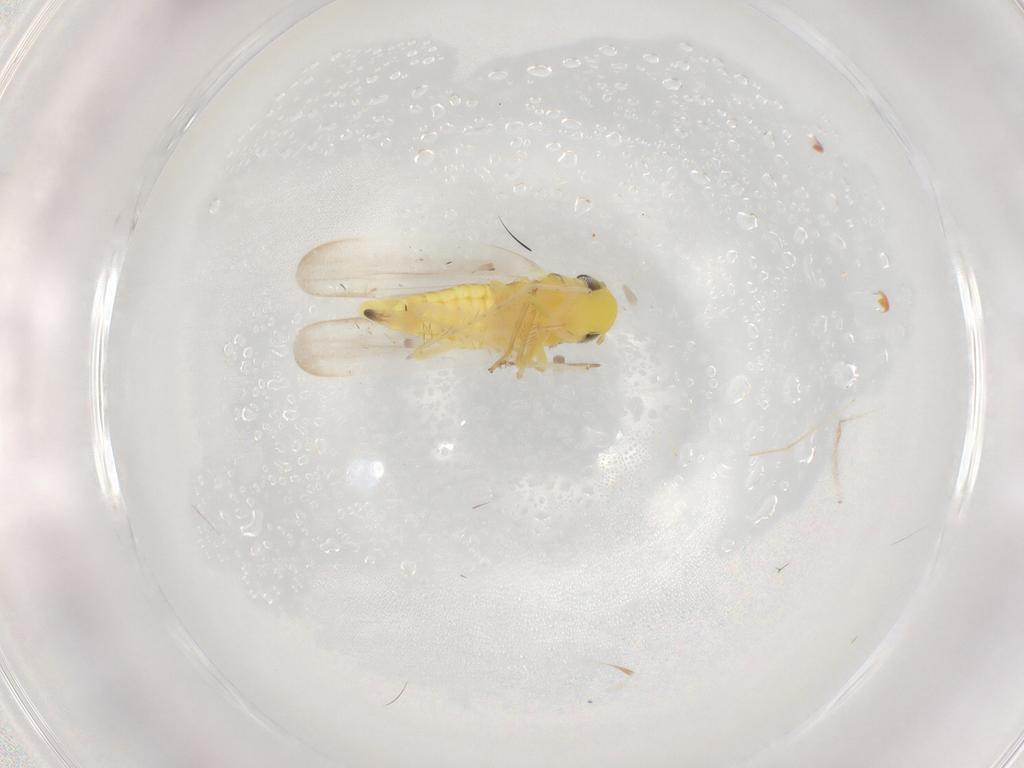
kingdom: Animalia
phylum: Arthropoda
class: Insecta
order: Hemiptera
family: Cicadellidae
